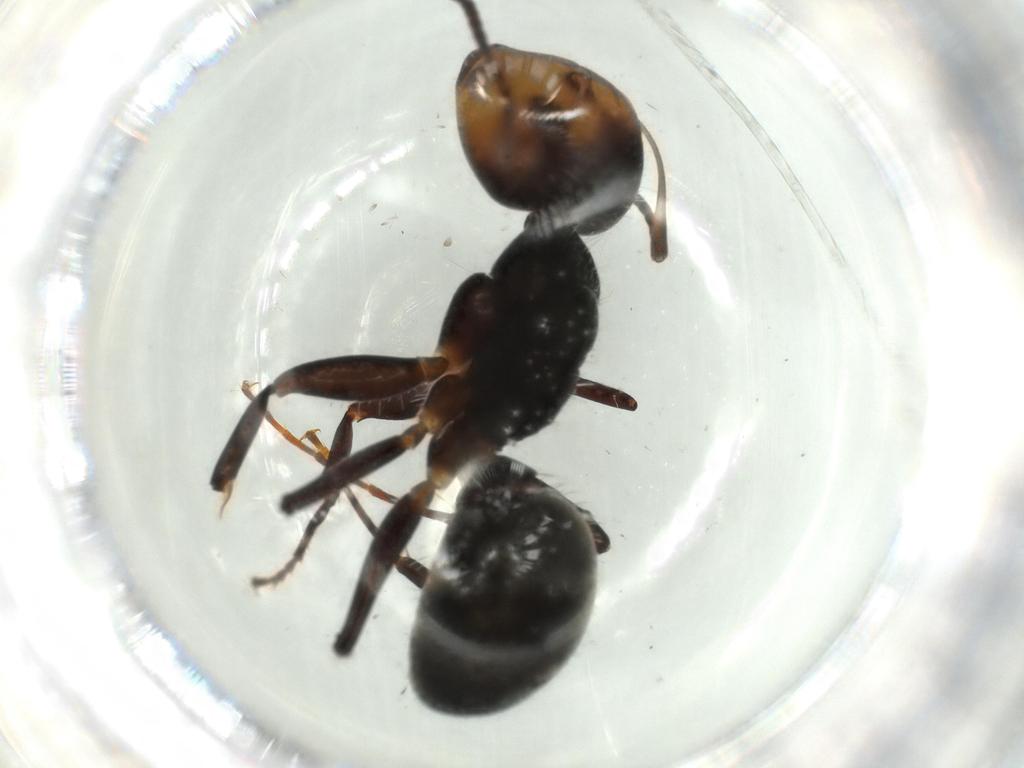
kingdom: Animalia
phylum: Arthropoda
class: Insecta
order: Hymenoptera
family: Formicidae
